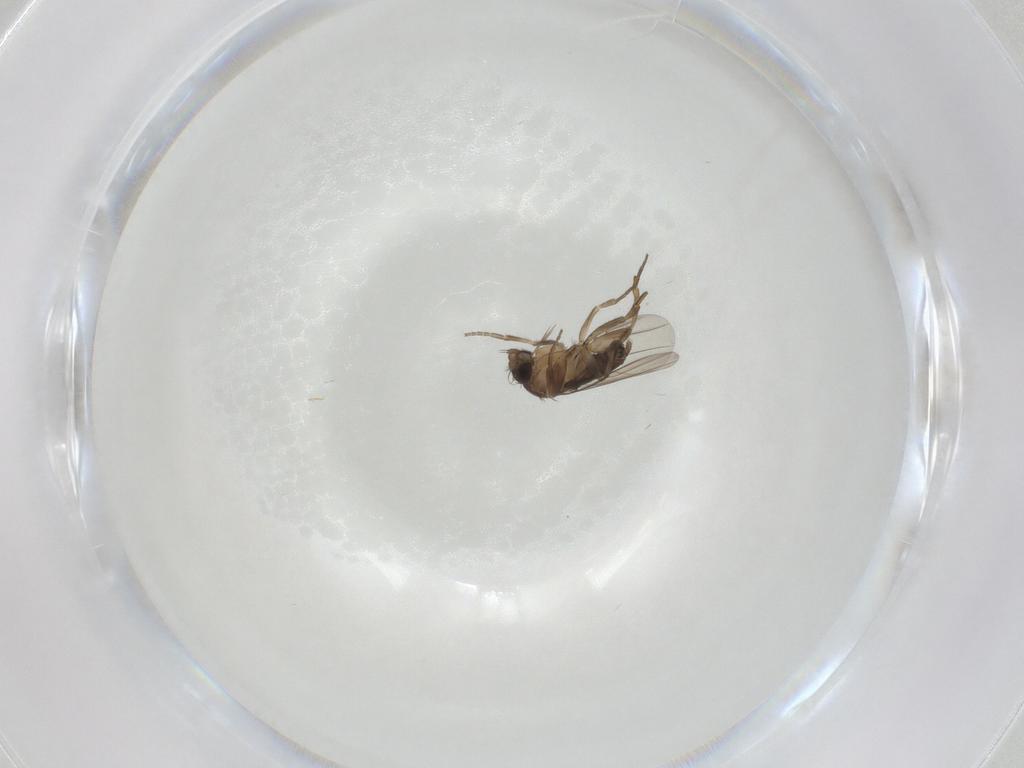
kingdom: Animalia
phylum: Arthropoda
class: Insecta
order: Diptera
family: Phoridae
